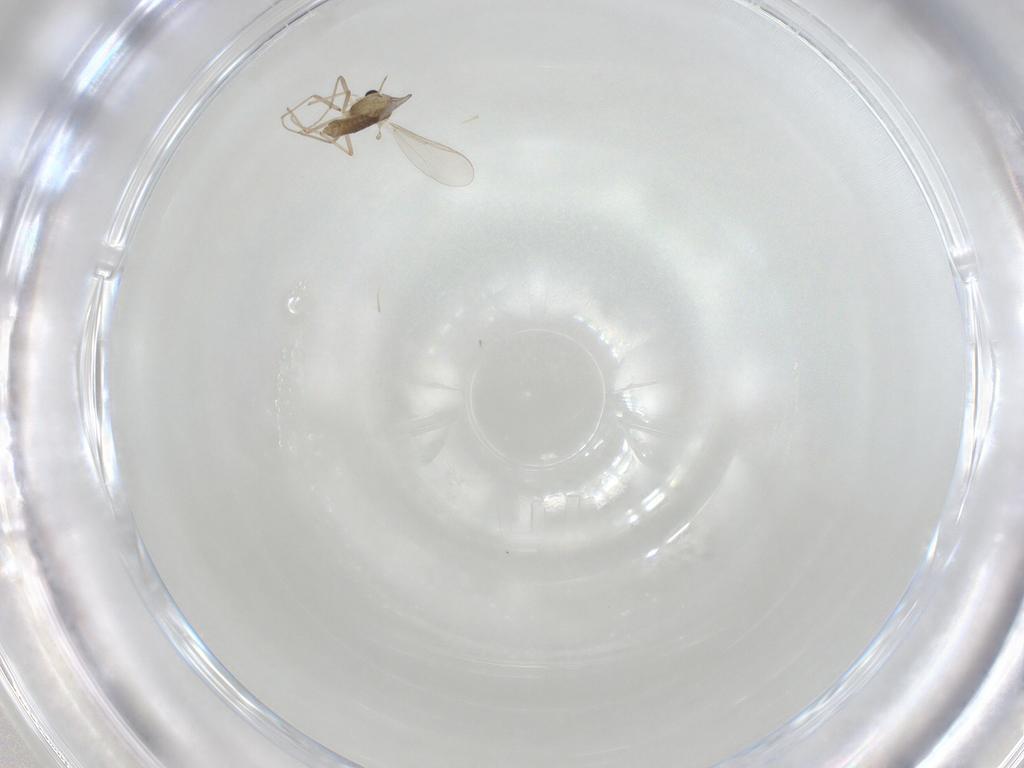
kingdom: Animalia
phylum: Arthropoda
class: Insecta
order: Diptera
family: Chironomidae
